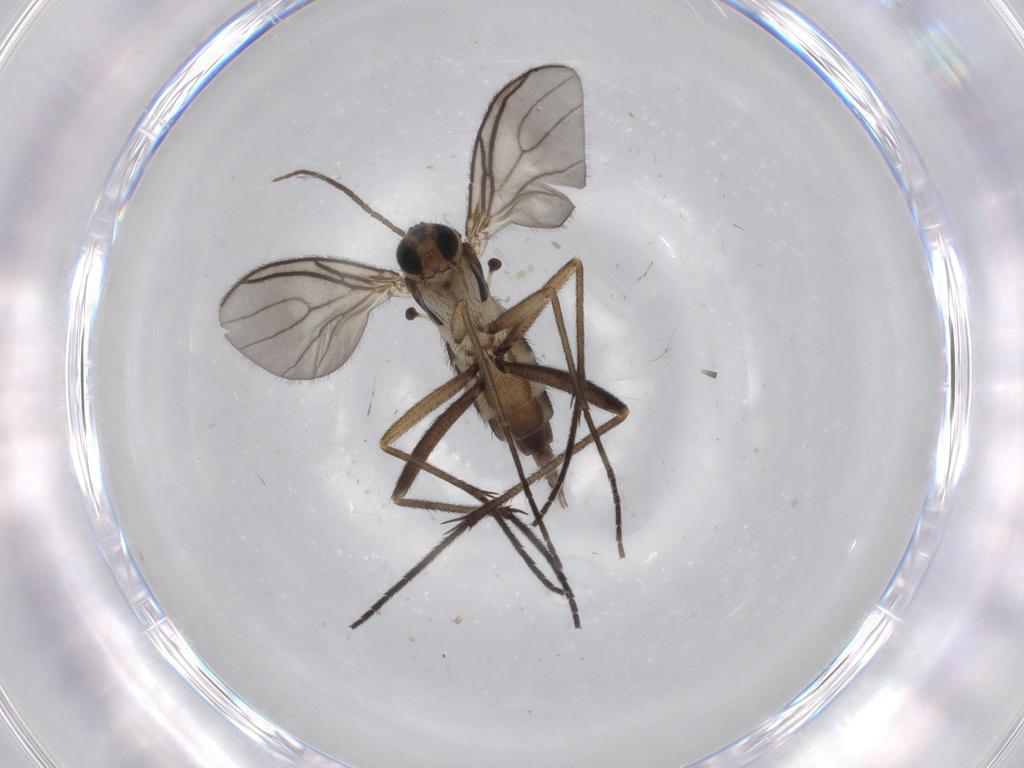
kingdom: Animalia
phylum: Arthropoda
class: Insecta
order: Diptera
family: Sciaridae
